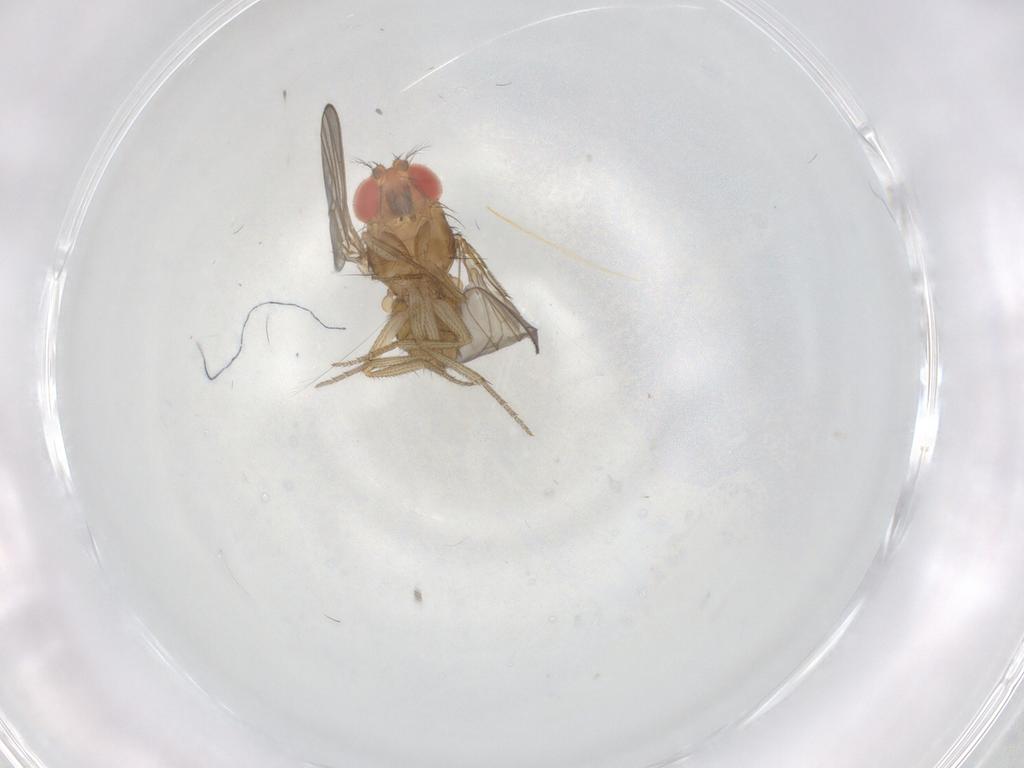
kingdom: Animalia
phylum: Arthropoda
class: Insecta
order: Diptera
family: Drosophilidae
